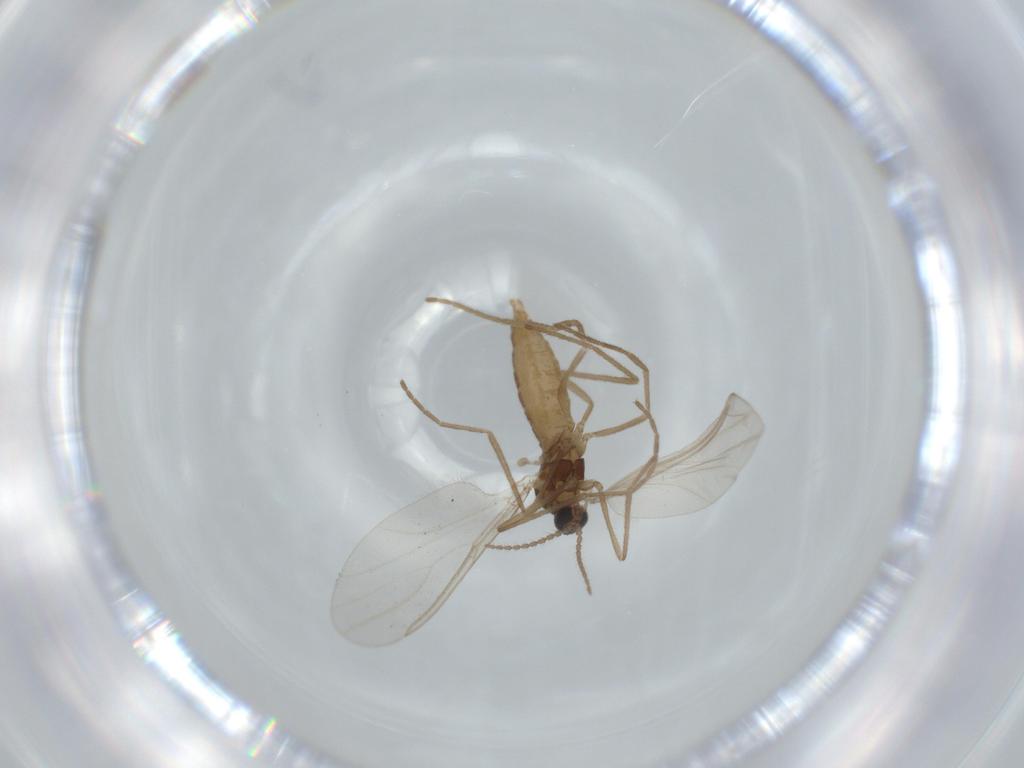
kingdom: Animalia
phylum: Arthropoda
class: Insecta
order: Diptera
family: Cecidomyiidae
